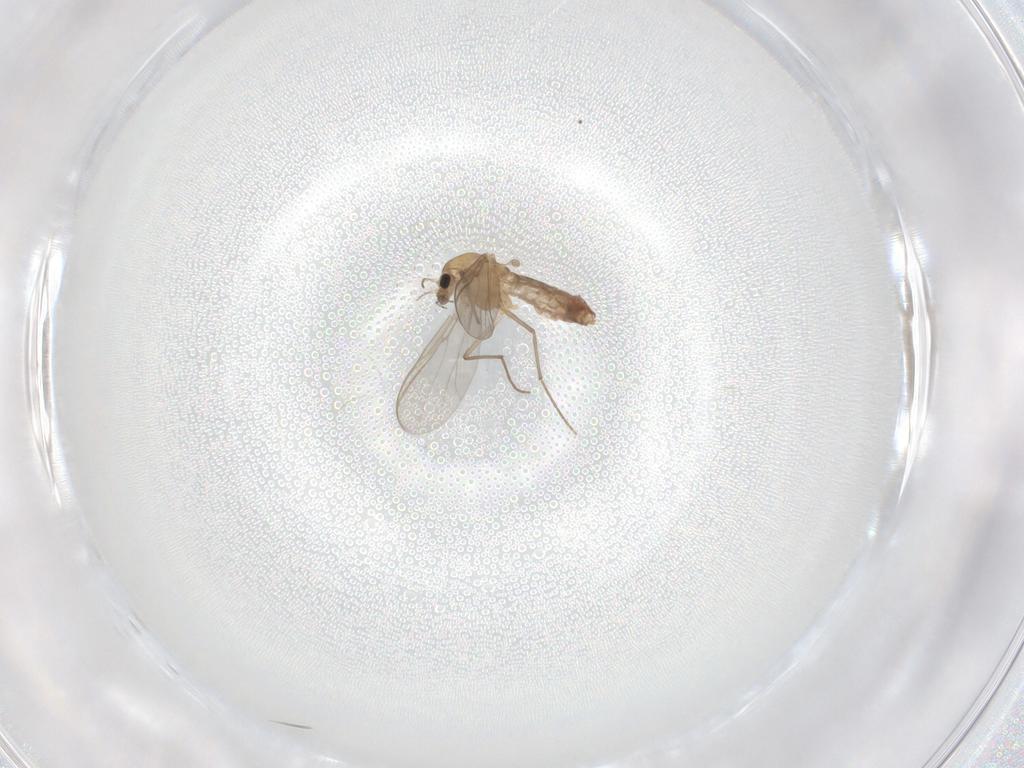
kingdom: Animalia
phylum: Arthropoda
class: Insecta
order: Diptera
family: Chironomidae
